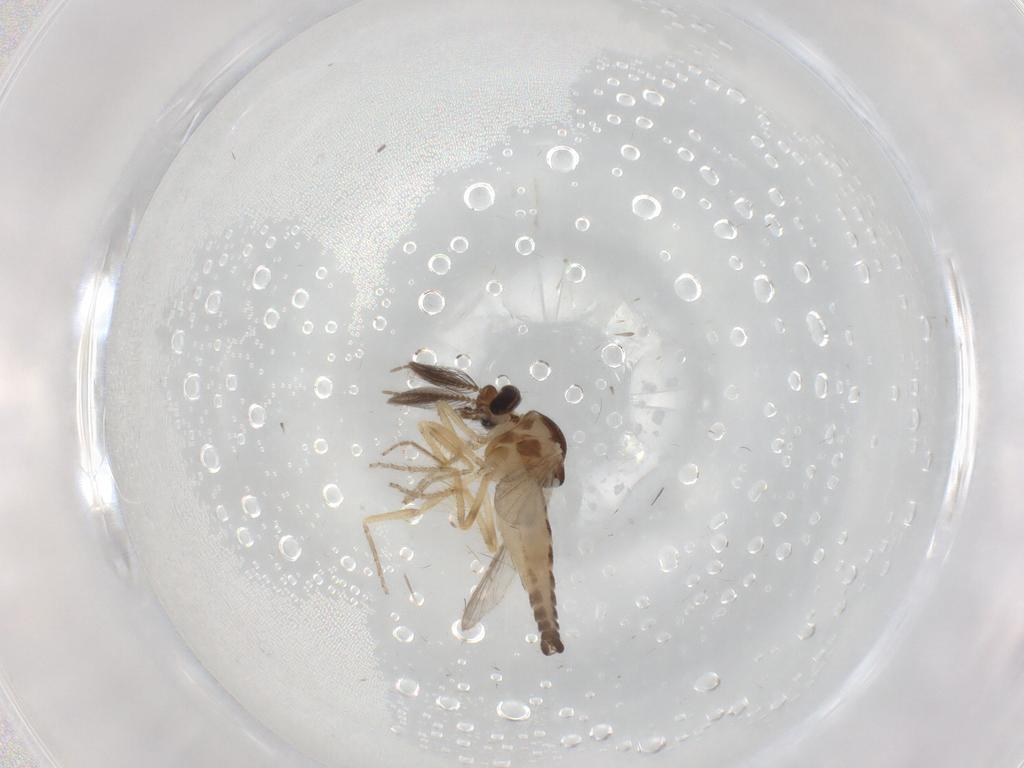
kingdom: Animalia
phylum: Arthropoda
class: Insecta
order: Diptera
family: Ceratopogonidae
